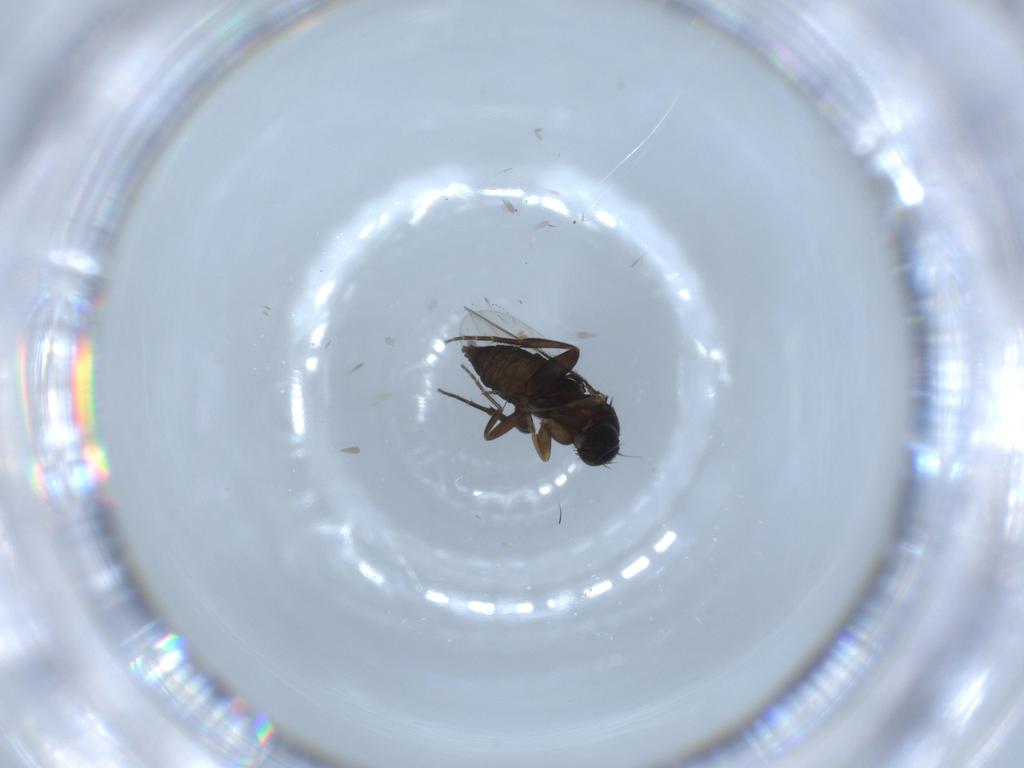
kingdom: Animalia
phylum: Arthropoda
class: Insecta
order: Diptera
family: Phoridae
